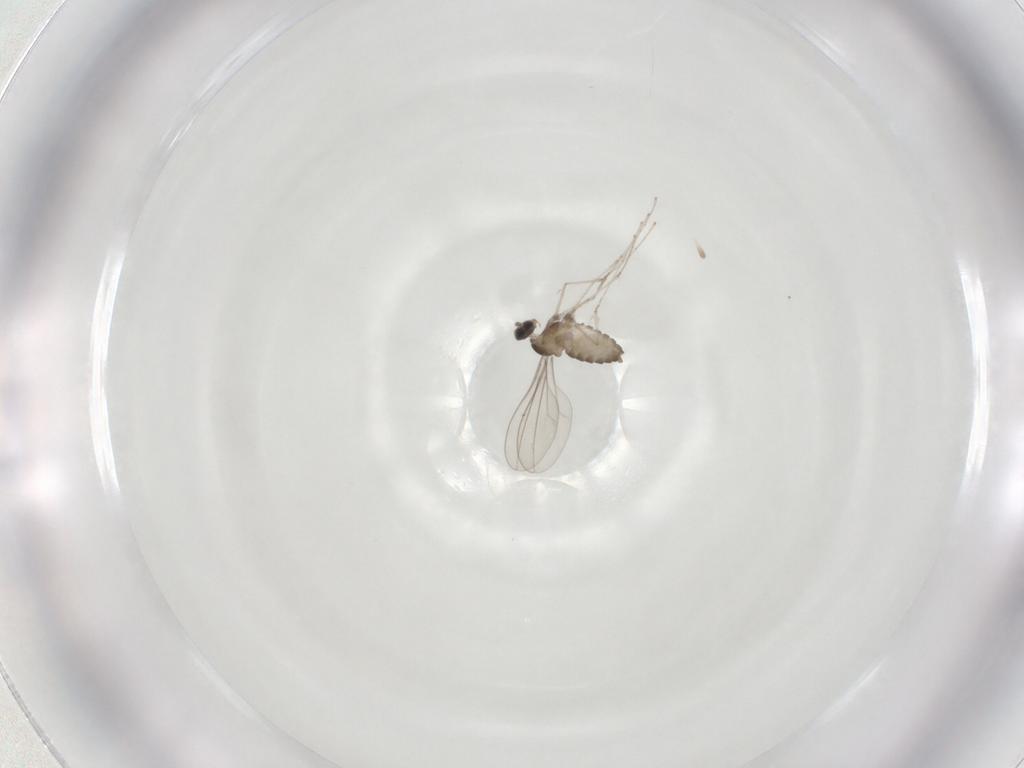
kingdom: Animalia
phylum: Arthropoda
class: Insecta
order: Diptera
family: Cecidomyiidae
